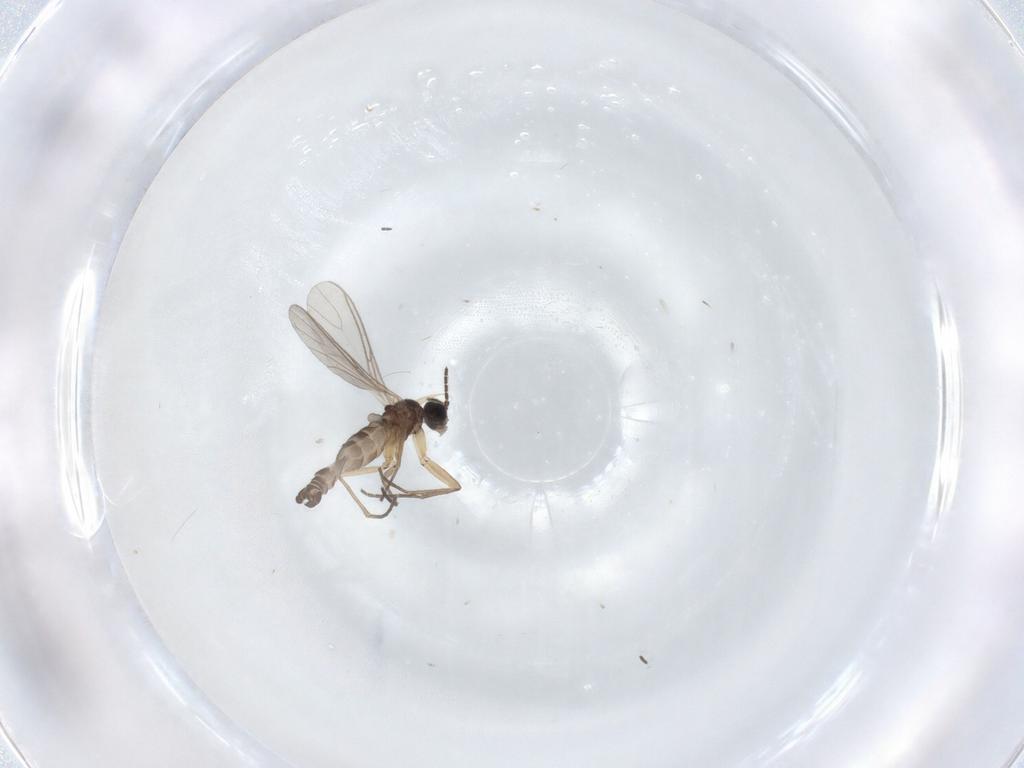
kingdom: Animalia
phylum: Arthropoda
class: Insecta
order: Diptera
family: Sciaridae
